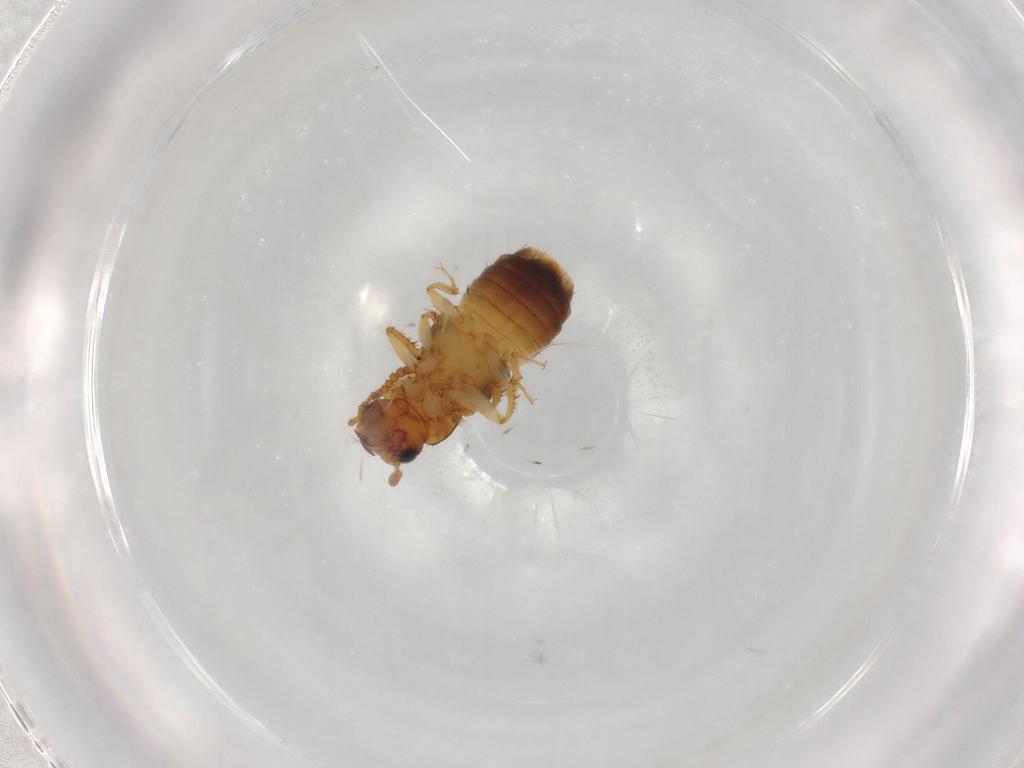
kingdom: Animalia
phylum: Arthropoda
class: Insecta
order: Coleoptera
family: Staphylinidae
